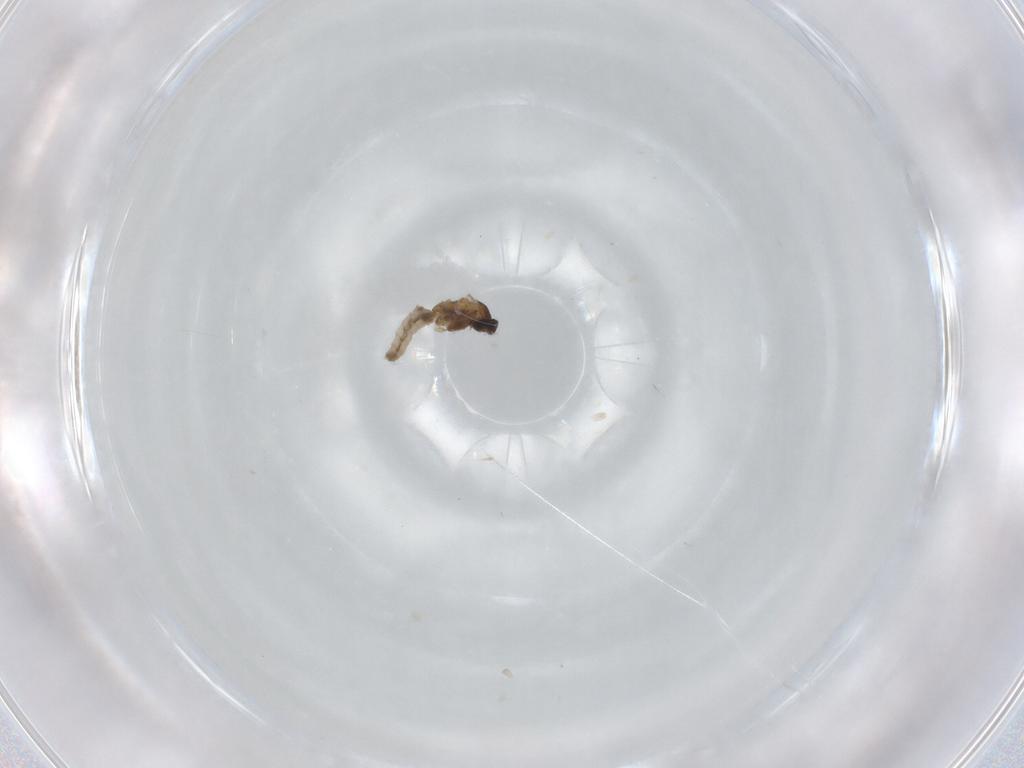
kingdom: Animalia
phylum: Arthropoda
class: Insecta
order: Diptera
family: Cecidomyiidae
